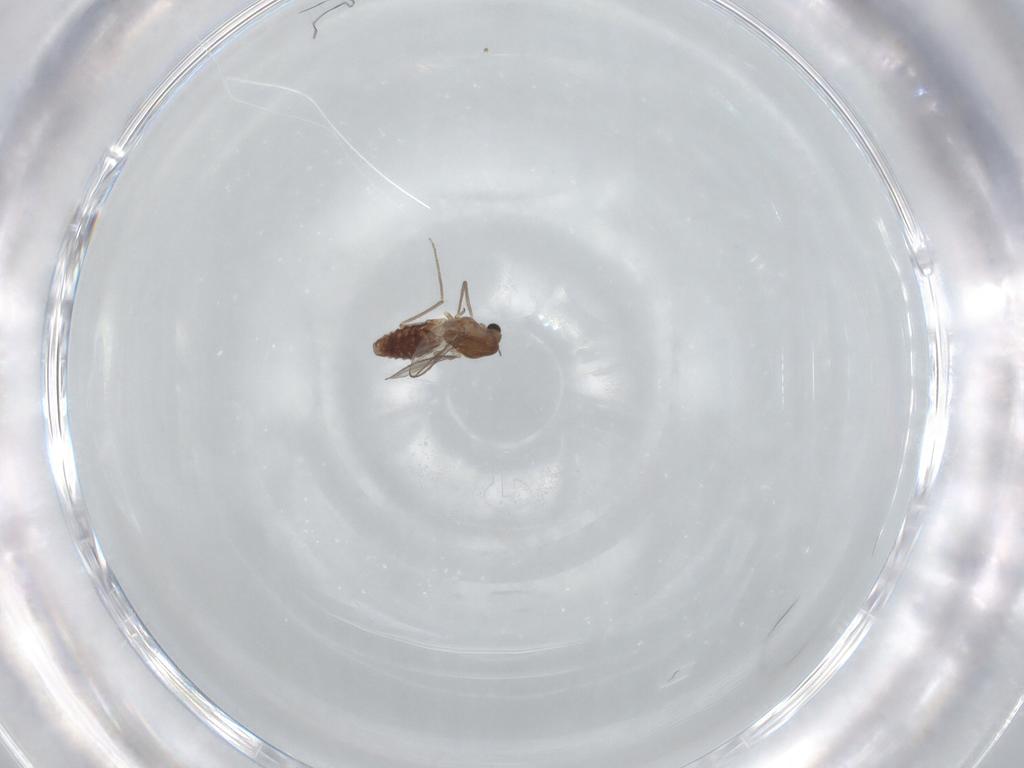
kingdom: Animalia
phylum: Arthropoda
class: Insecta
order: Diptera
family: Chironomidae
